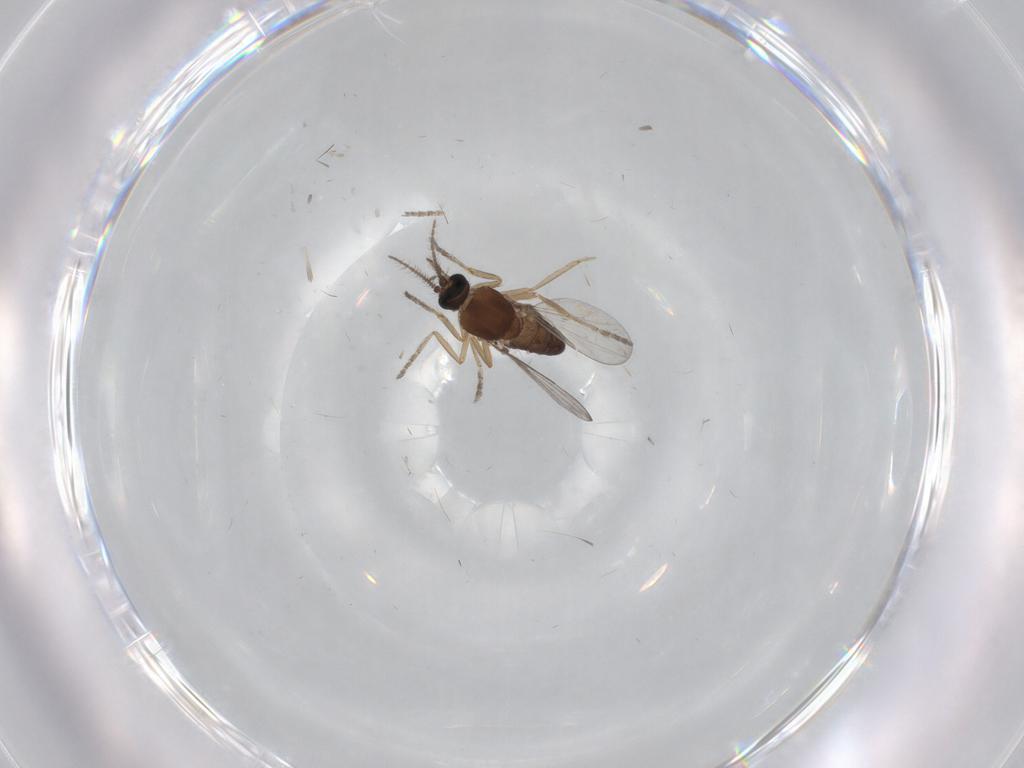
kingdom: Animalia
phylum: Arthropoda
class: Insecta
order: Diptera
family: Ceratopogonidae
